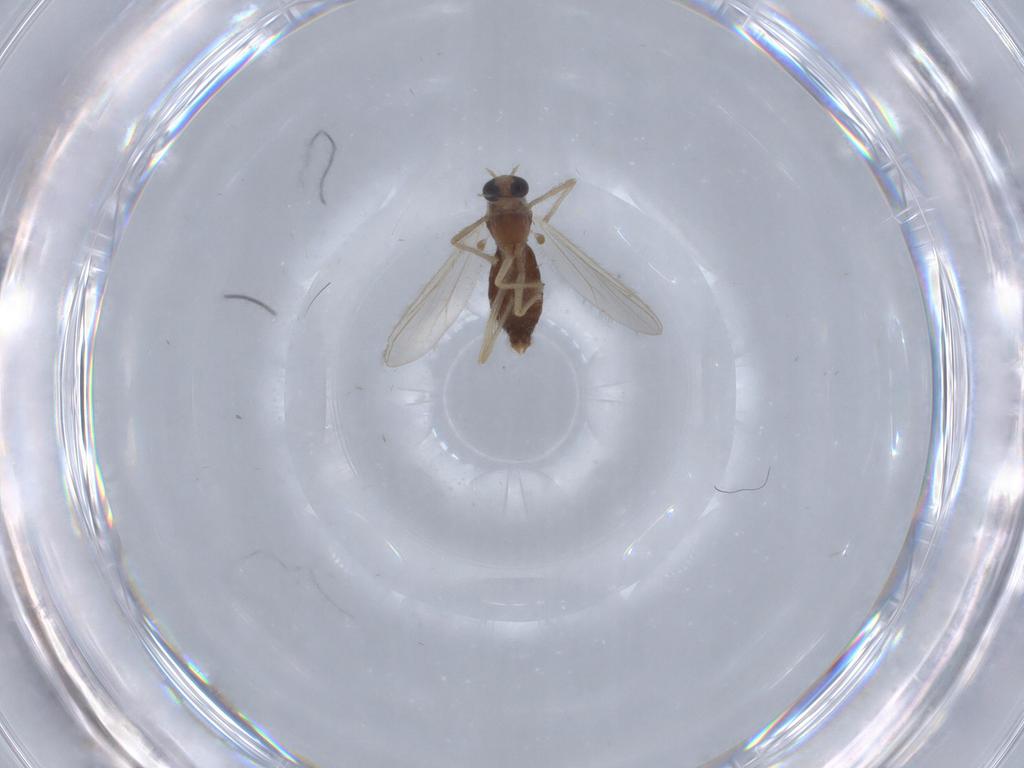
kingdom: Animalia
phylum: Arthropoda
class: Insecta
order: Diptera
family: Chironomidae
